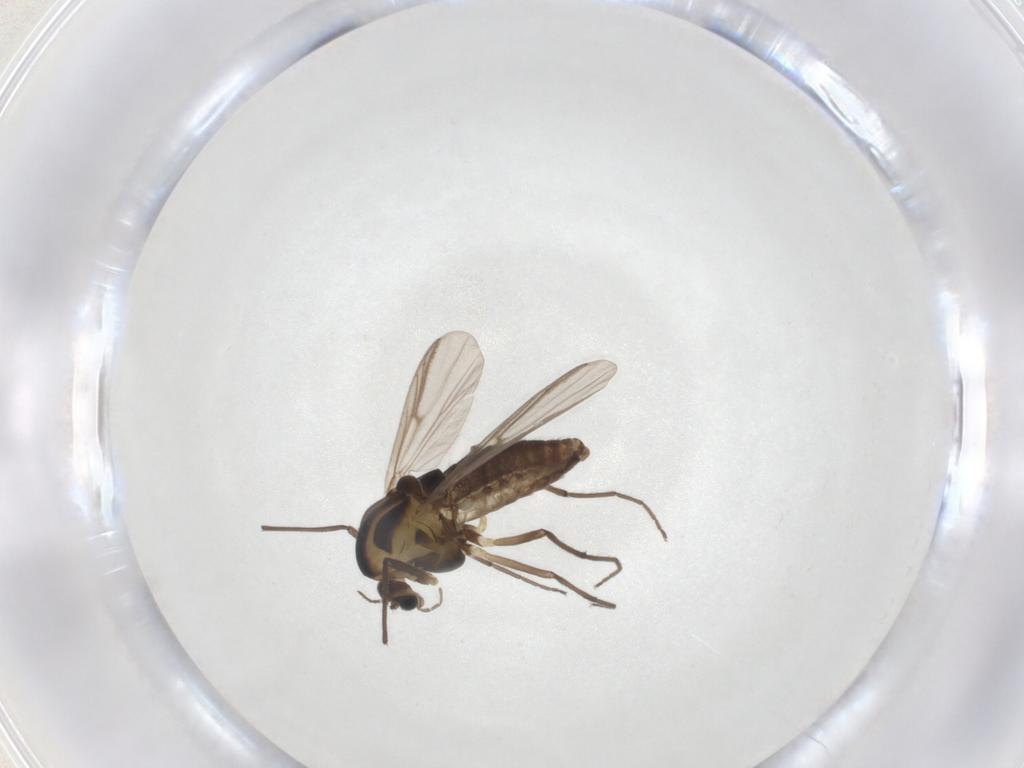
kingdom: Animalia
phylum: Arthropoda
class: Insecta
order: Diptera
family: Chironomidae
